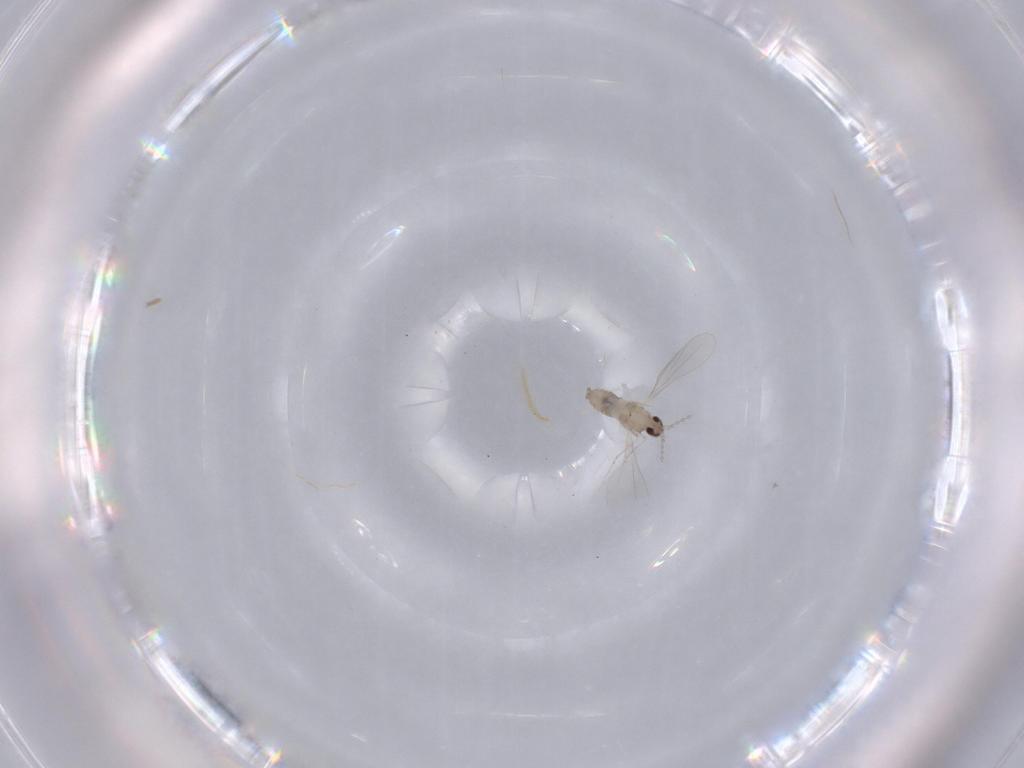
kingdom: Animalia
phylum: Arthropoda
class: Insecta
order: Diptera
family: Cecidomyiidae
